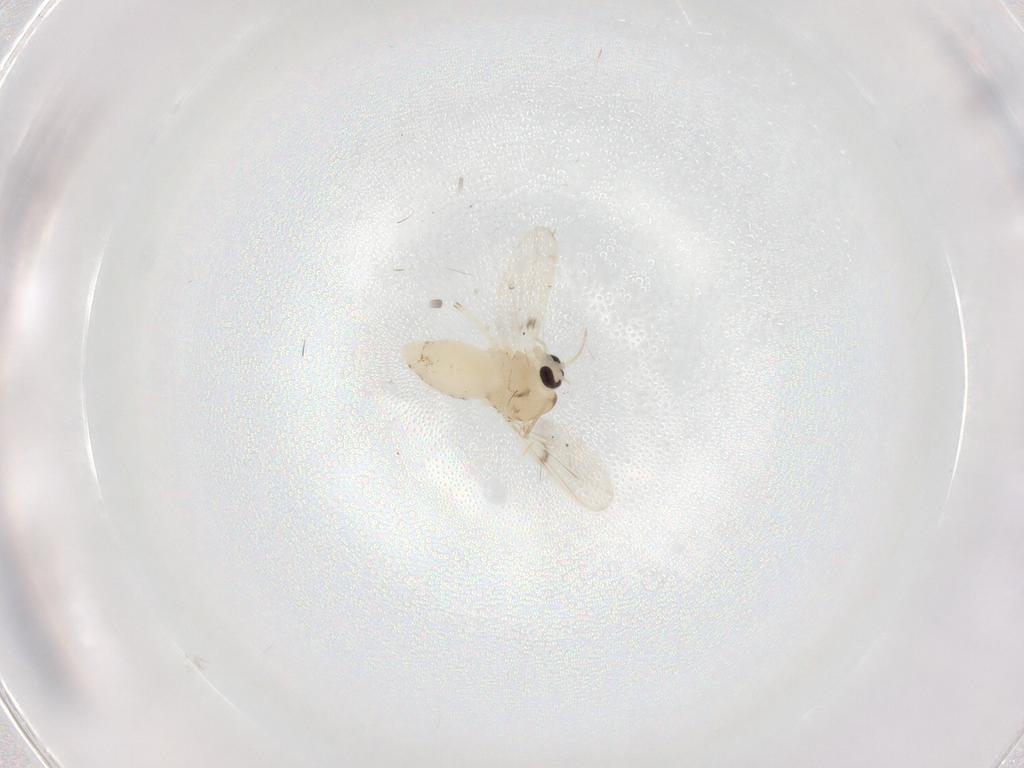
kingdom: Animalia
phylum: Arthropoda
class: Insecta
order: Diptera
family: Chironomidae
